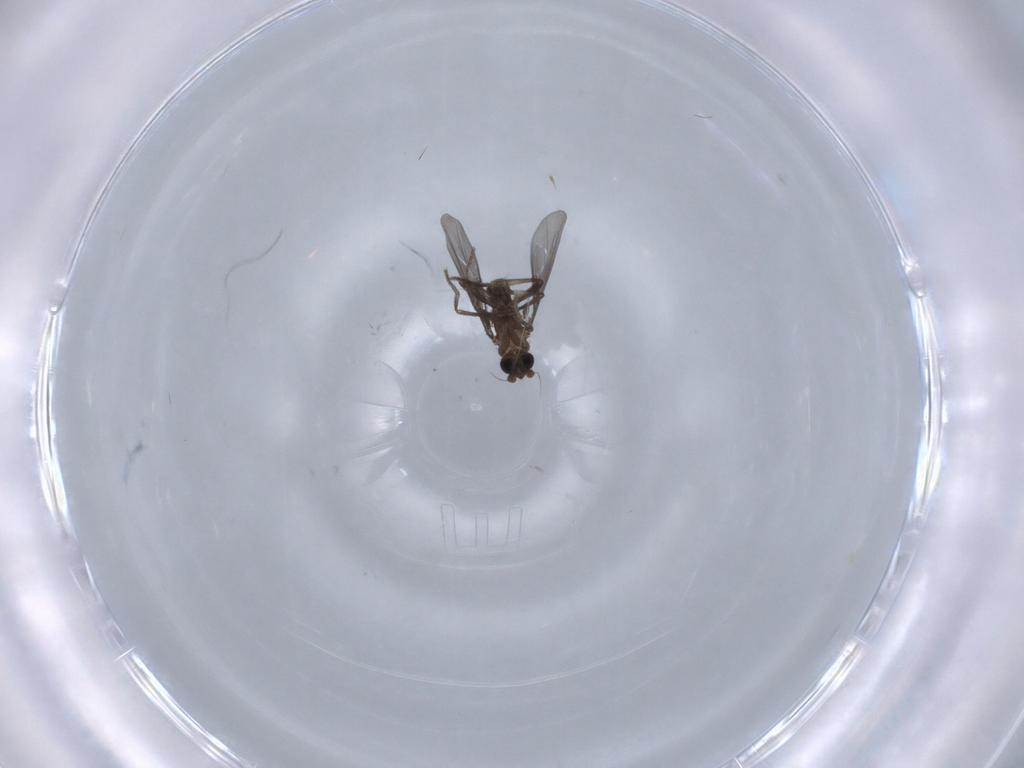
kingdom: Animalia
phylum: Arthropoda
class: Insecta
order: Diptera
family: Phoridae
